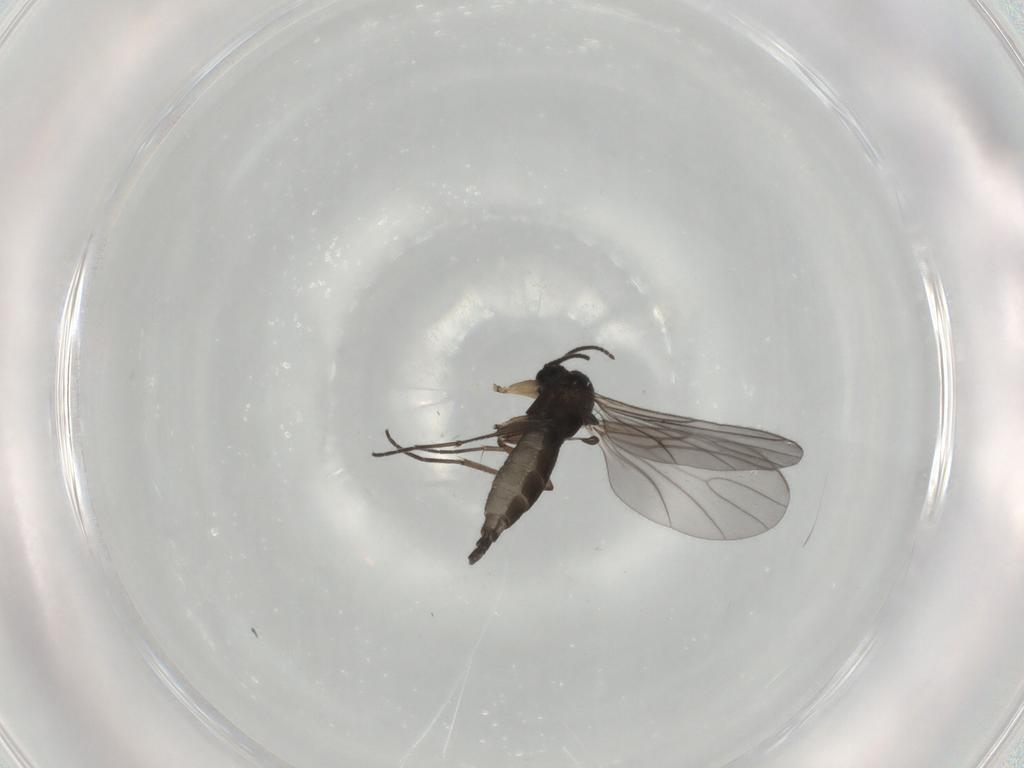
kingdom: Animalia
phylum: Arthropoda
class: Insecta
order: Diptera
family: Sciaridae
